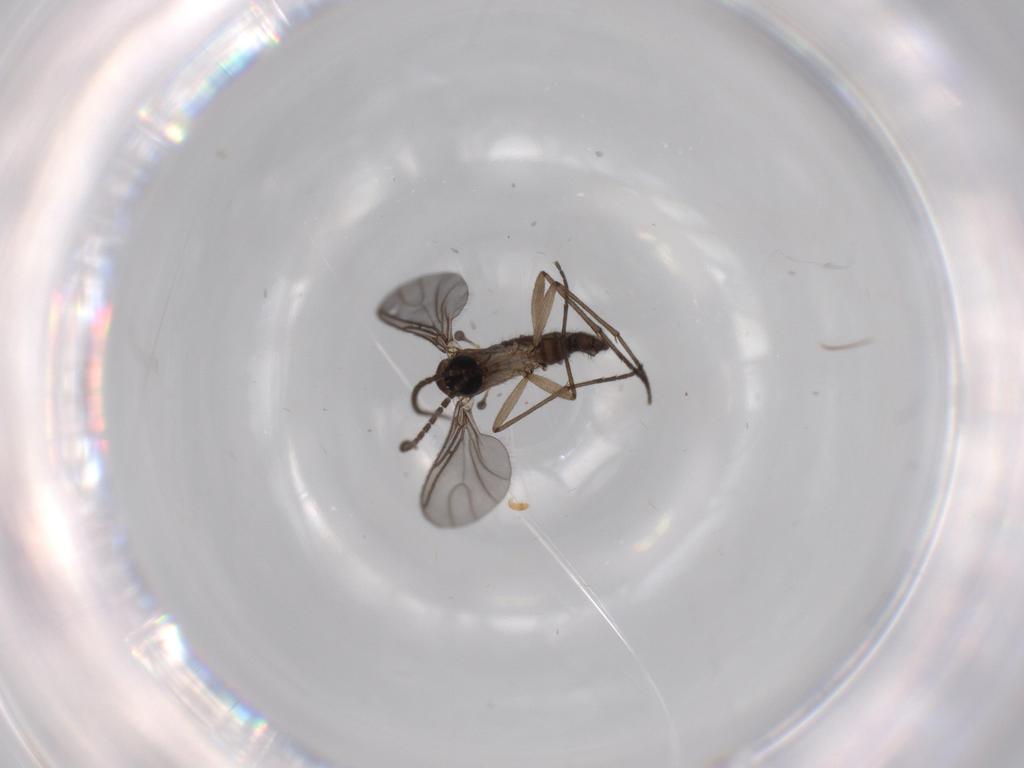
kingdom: Animalia
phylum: Arthropoda
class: Insecta
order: Diptera
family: Sciaridae
